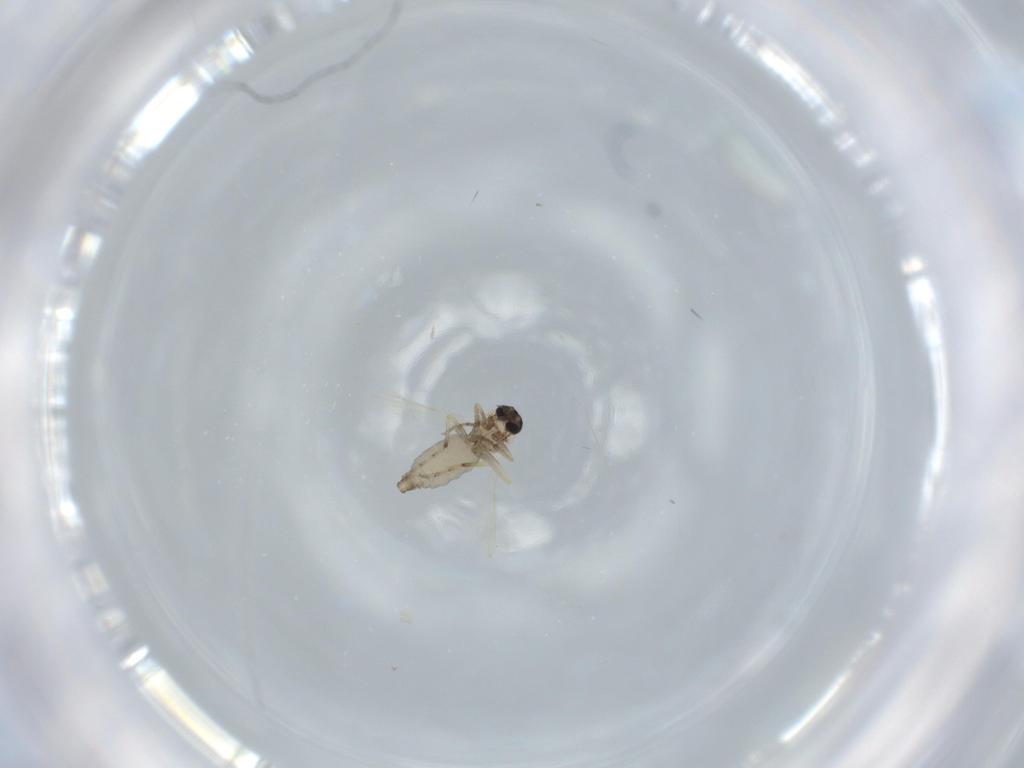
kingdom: Animalia
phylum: Arthropoda
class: Insecta
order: Diptera
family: Ceratopogonidae
